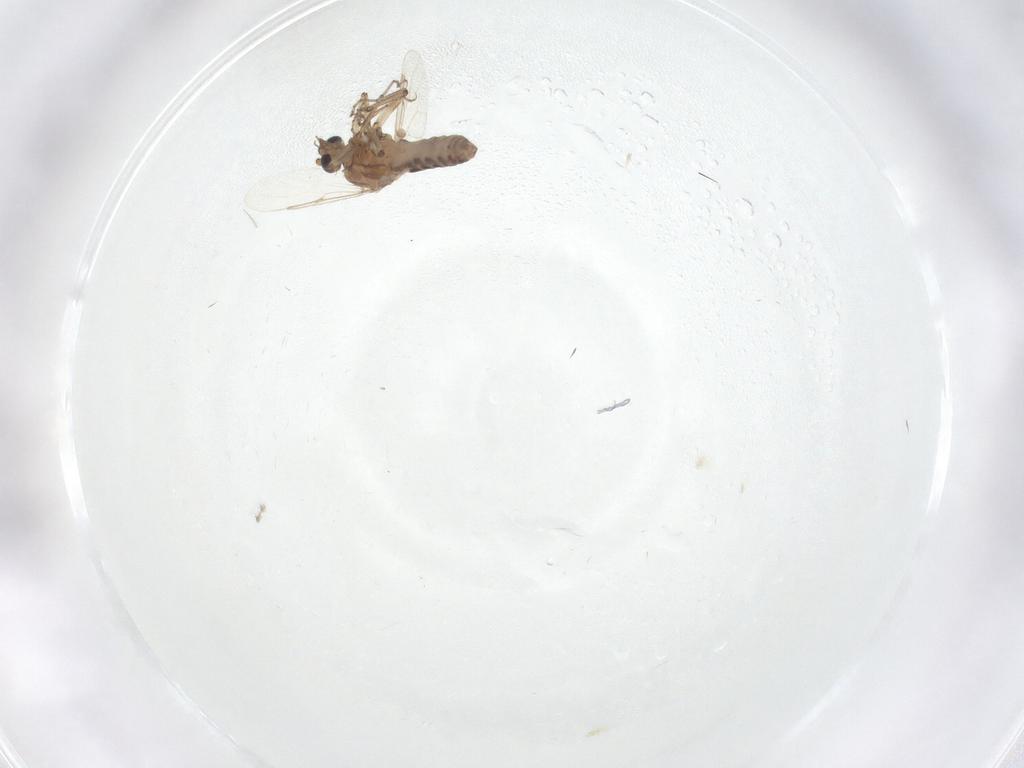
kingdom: Animalia
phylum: Arthropoda
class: Insecta
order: Diptera
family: Ceratopogonidae
